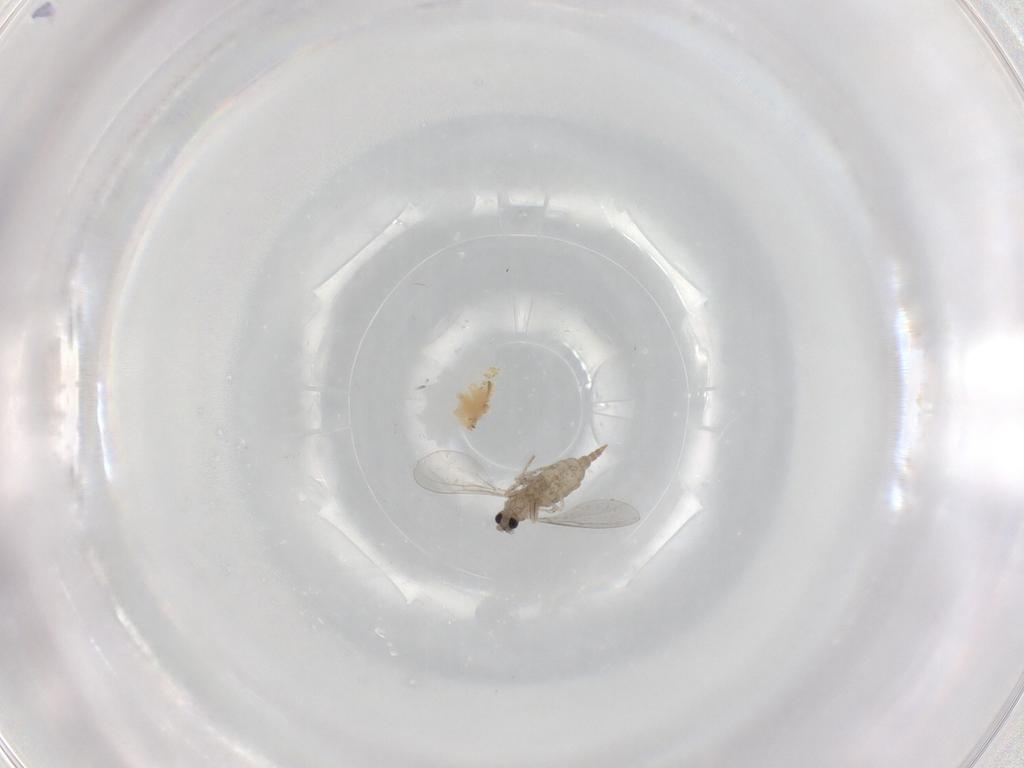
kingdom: Animalia
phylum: Arthropoda
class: Insecta
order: Diptera
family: Cecidomyiidae
